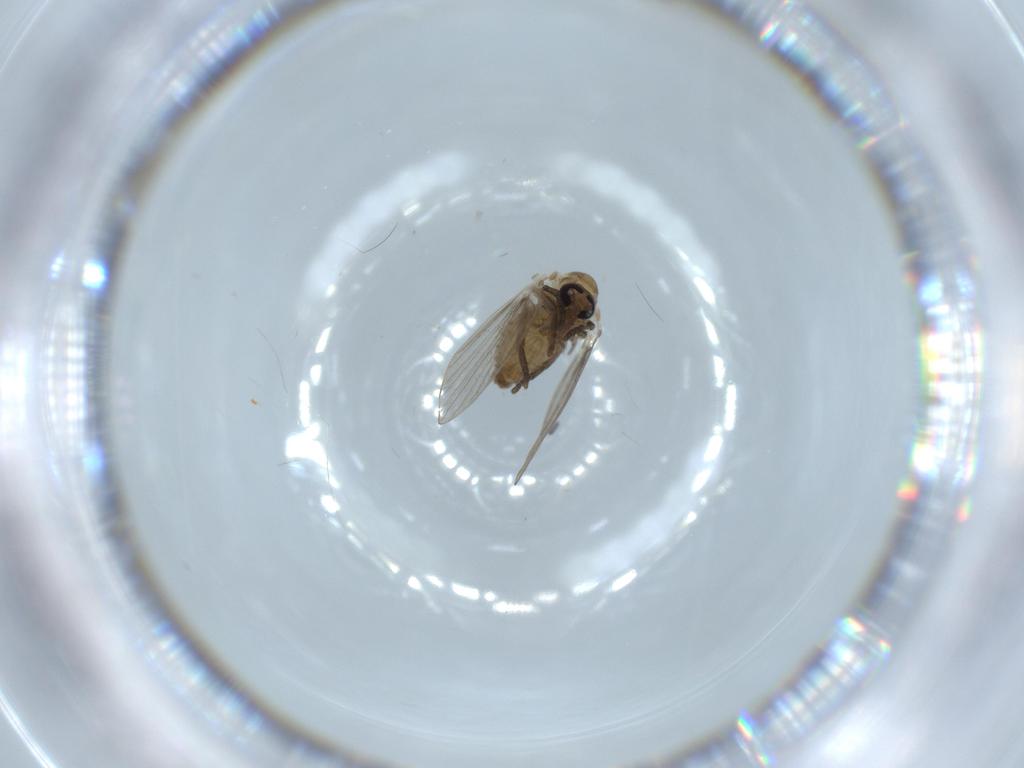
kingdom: Animalia
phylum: Arthropoda
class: Insecta
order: Diptera
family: Psychodidae
